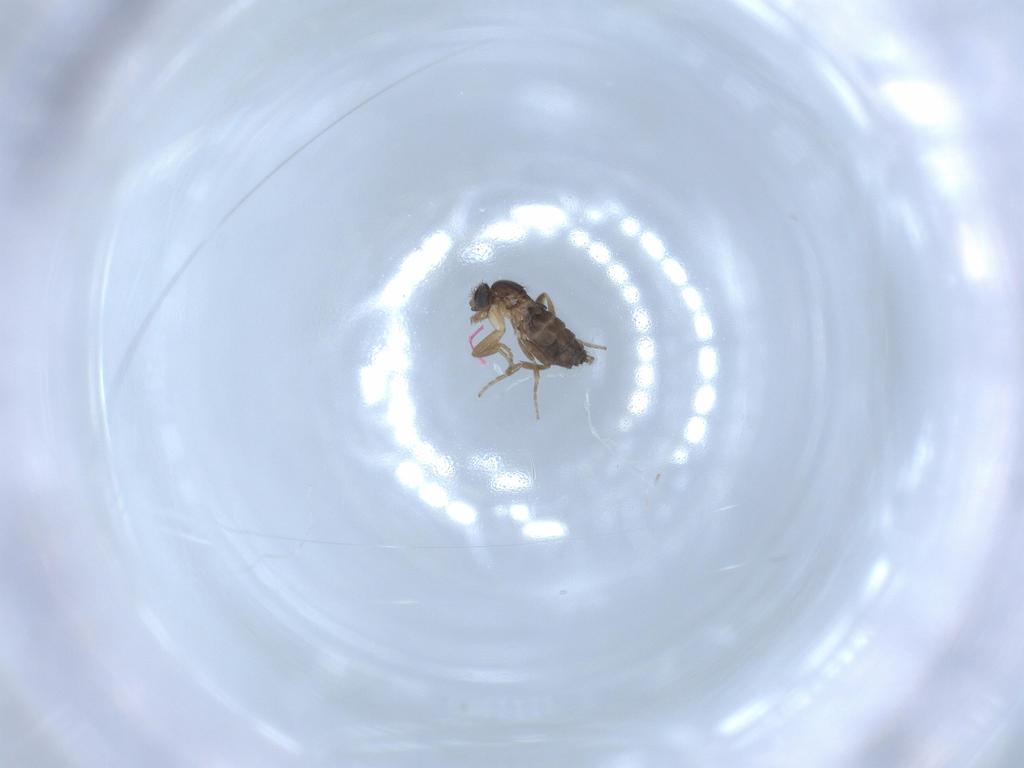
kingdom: Animalia
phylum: Arthropoda
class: Insecta
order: Diptera
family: Phoridae
